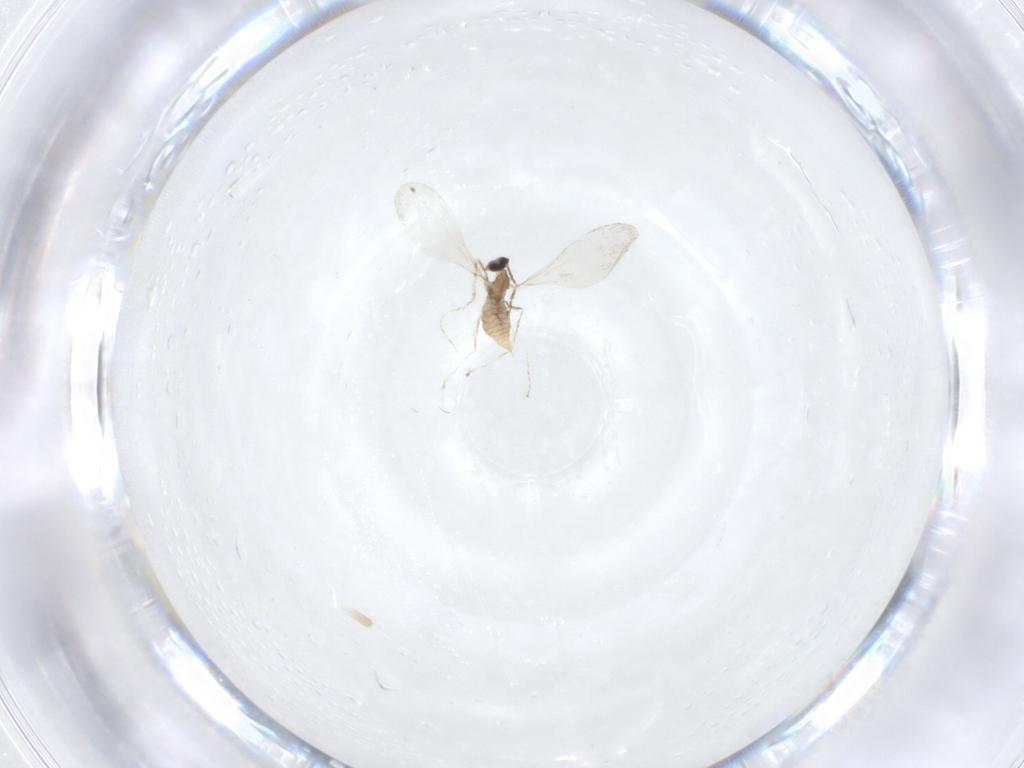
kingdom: Animalia
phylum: Arthropoda
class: Insecta
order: Diptera
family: Cecidomyiidae
